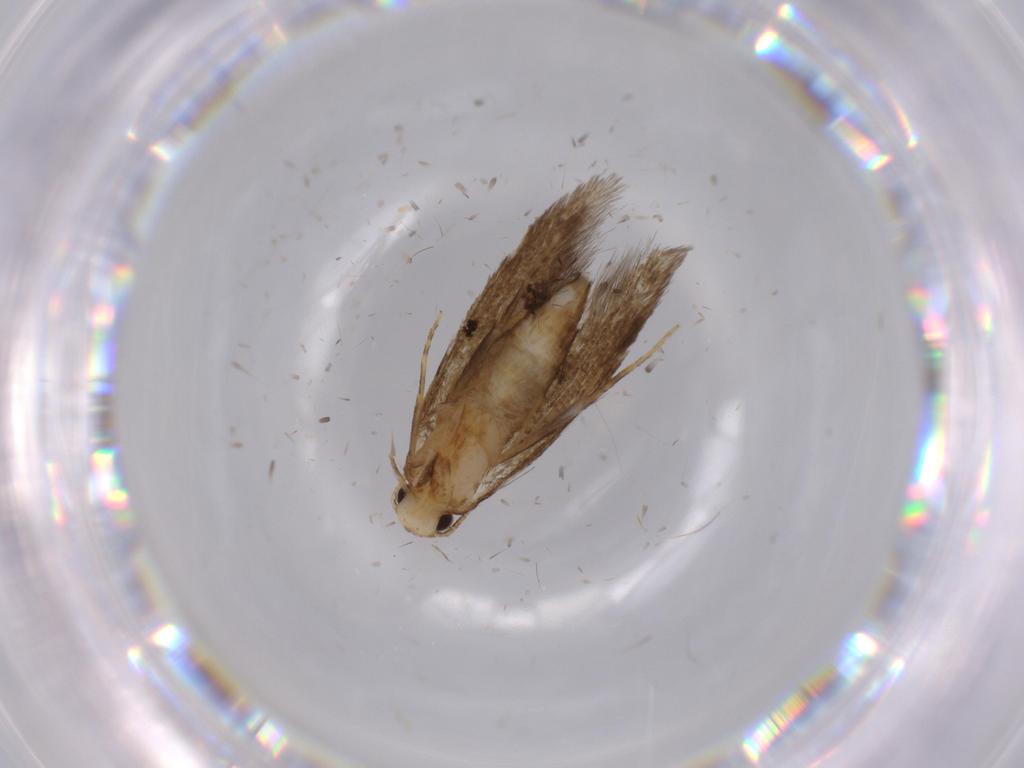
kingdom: Animalia
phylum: Arthropoda
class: Insecta
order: Lepidoptera
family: Tineidae
